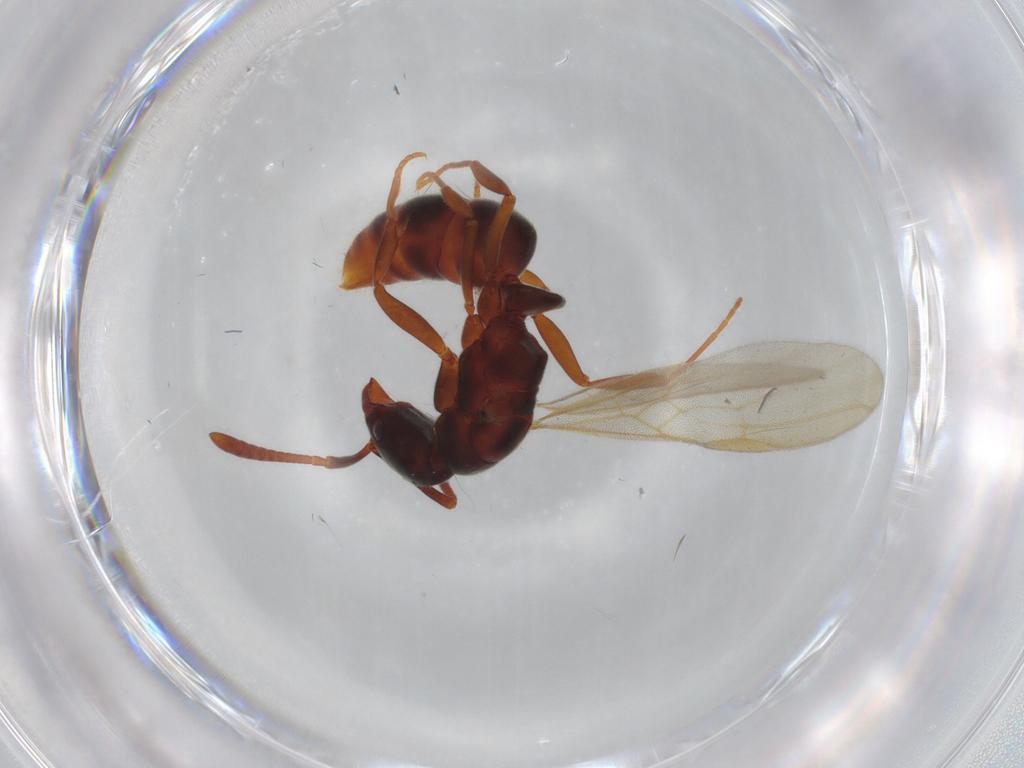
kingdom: Animalia
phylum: Arthropoda
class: Insecta
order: Hymenoptera
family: Formicidae
